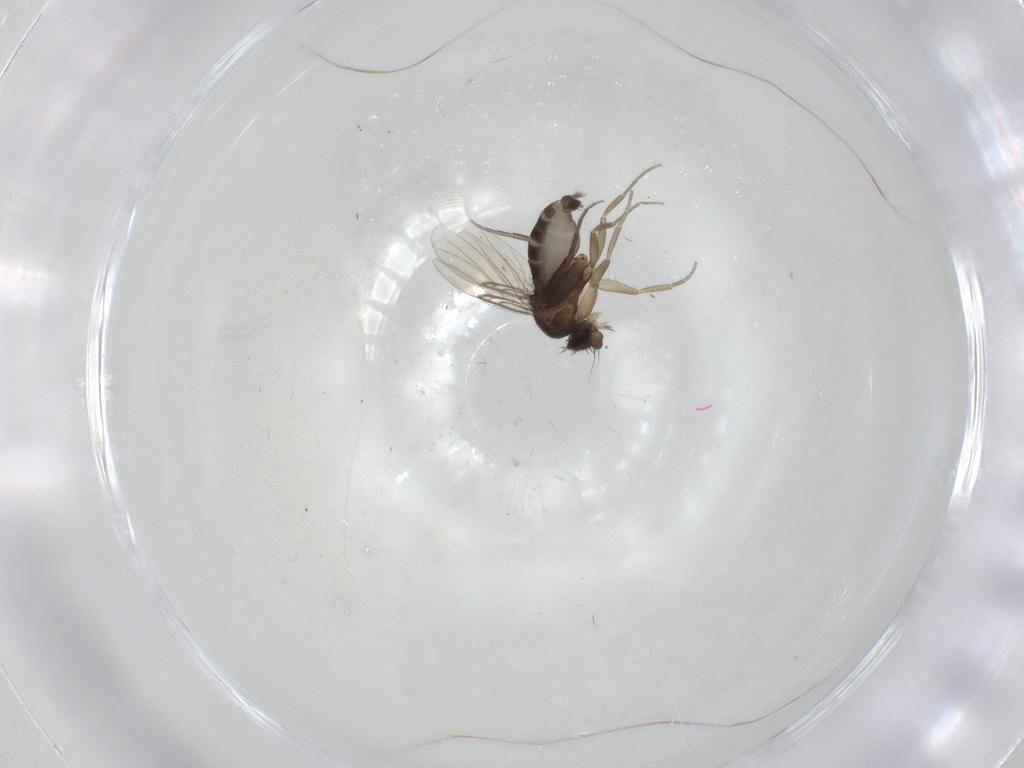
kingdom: Animalia
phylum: Arthropoda
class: Insecta
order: Diptera
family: Phoridae
